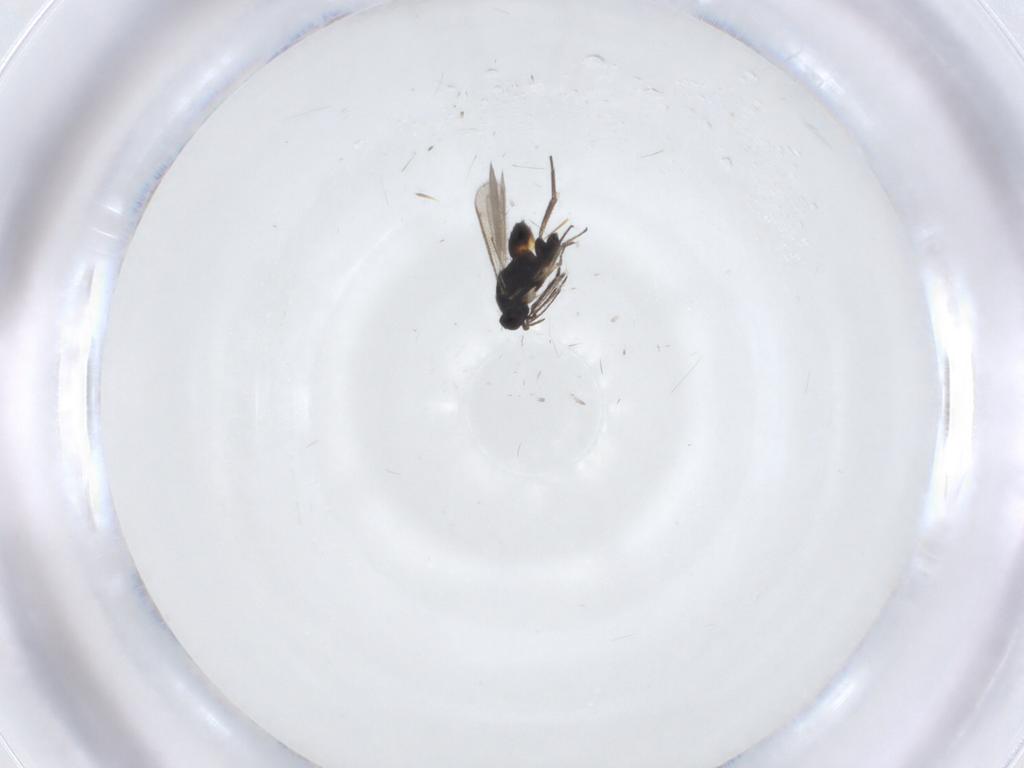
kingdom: Animalia
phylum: Arthropoda
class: Insecta
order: Hymenoptera
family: Eulophidae
